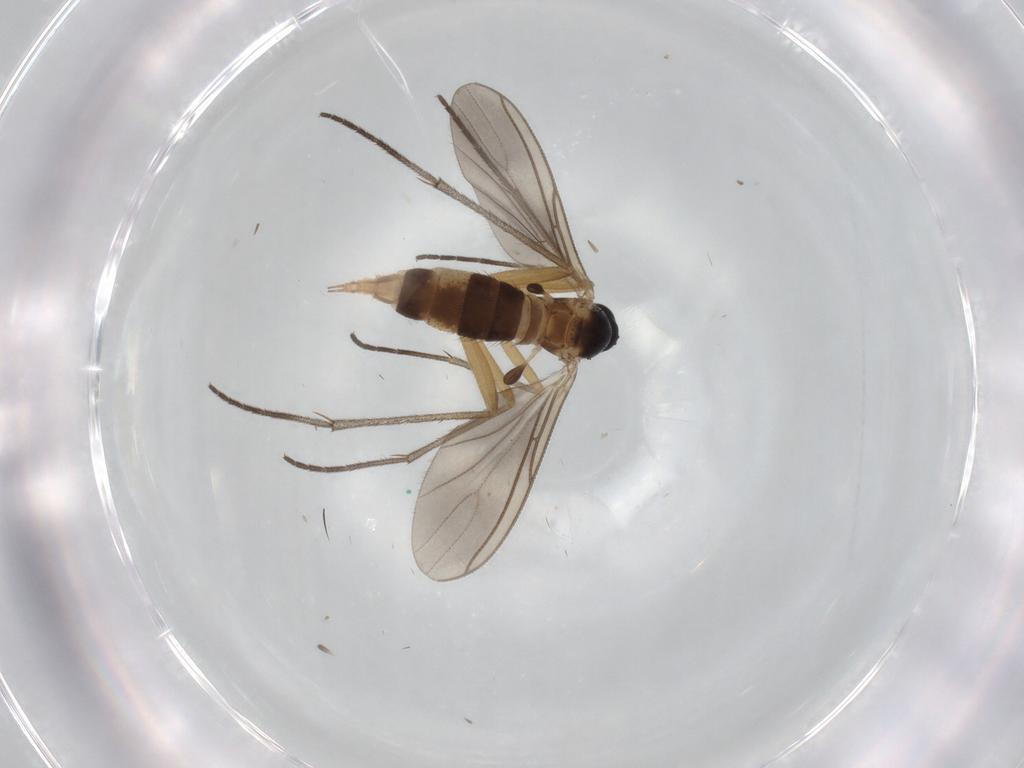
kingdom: Animalia
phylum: Arthropoda
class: Insecta
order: Diptera
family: Sciaridae
